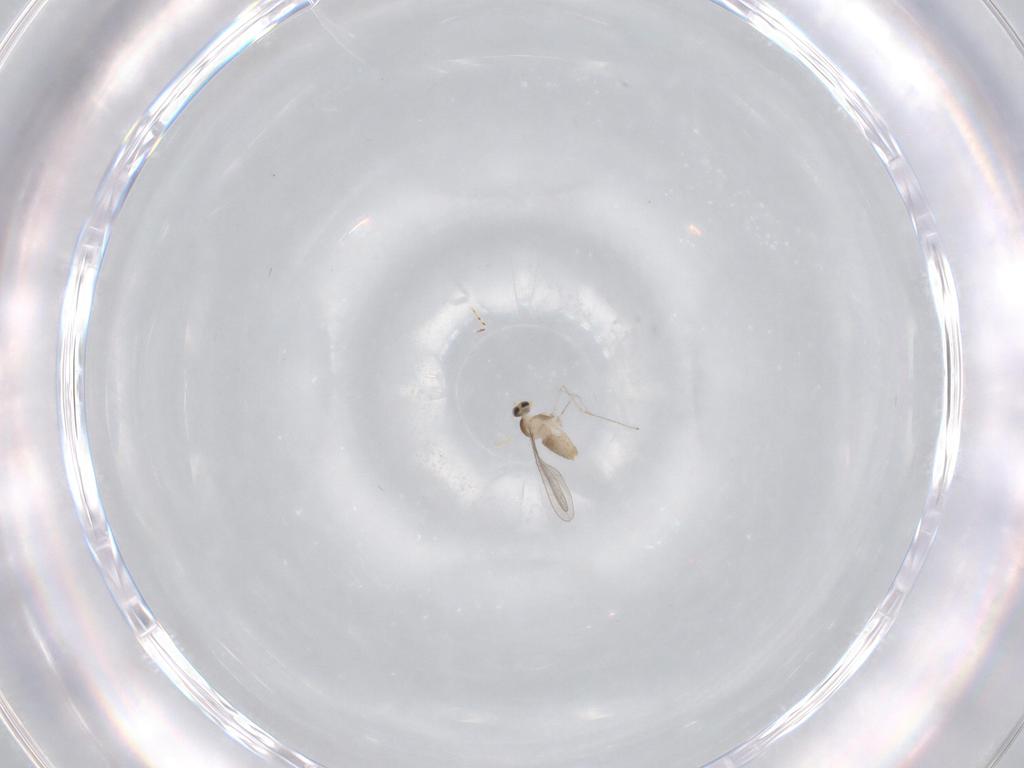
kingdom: Animalia
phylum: Arthropoda
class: Insecta
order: Diptera
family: Cecidomyiidae
